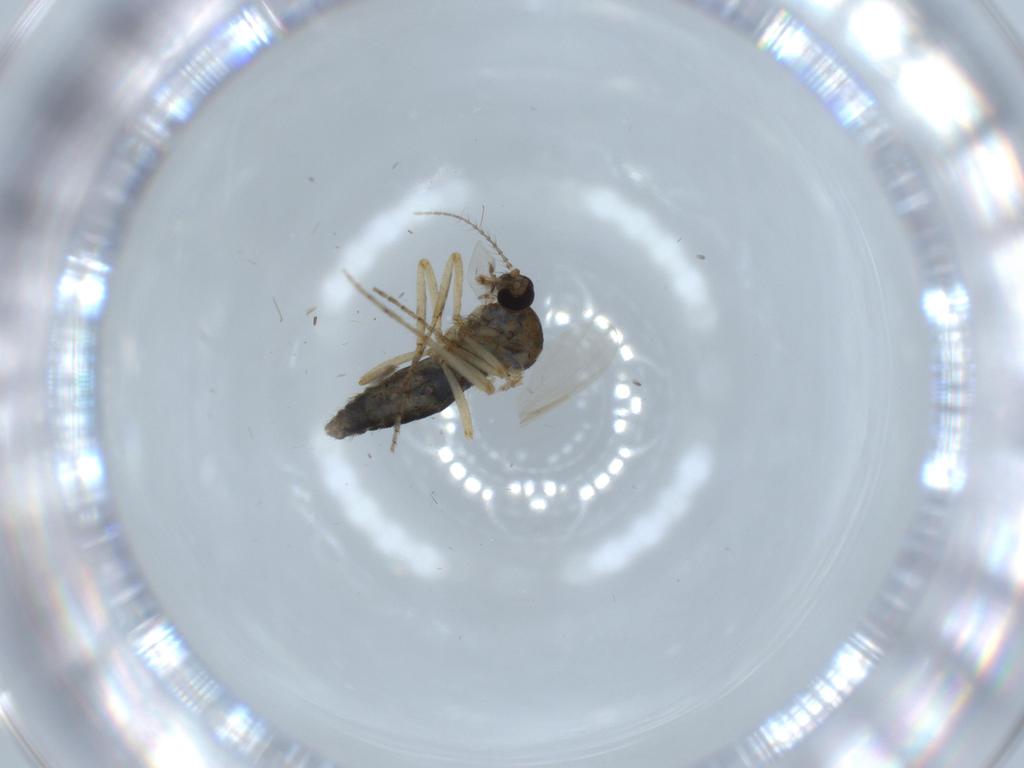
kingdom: Animalia
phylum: Arthropoda
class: Insecta
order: Diptera
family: Ceratopogonidae
